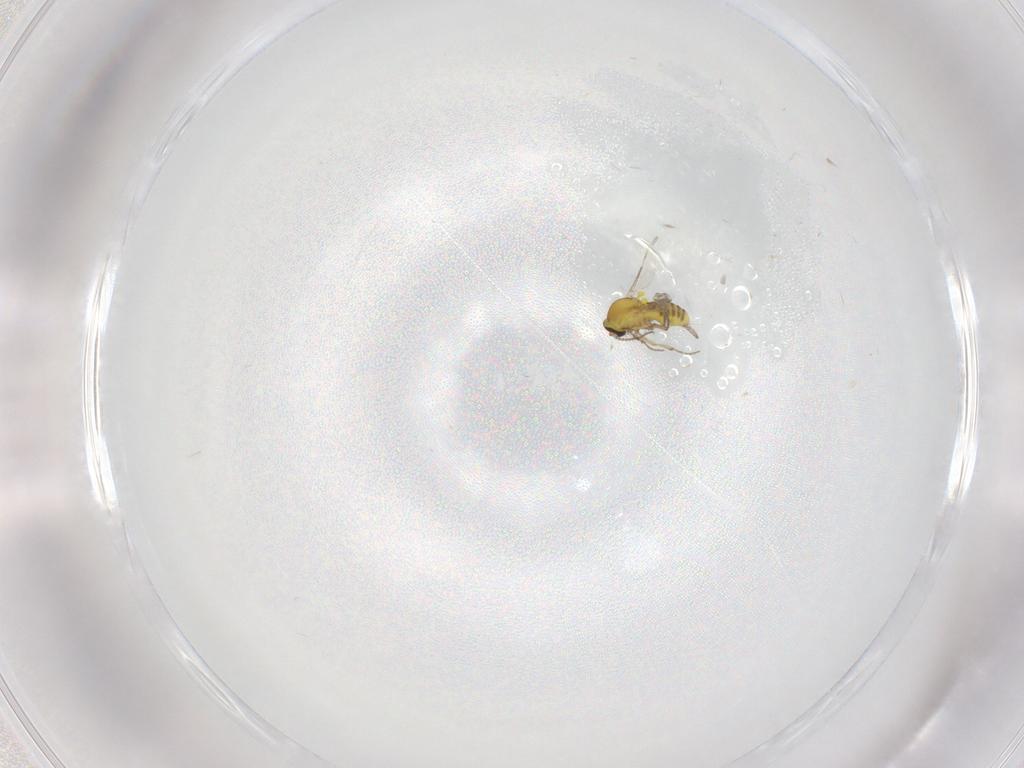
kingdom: Animalia
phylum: Arthropoda
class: Insecta
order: Diptera
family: Ceratopogonidae
